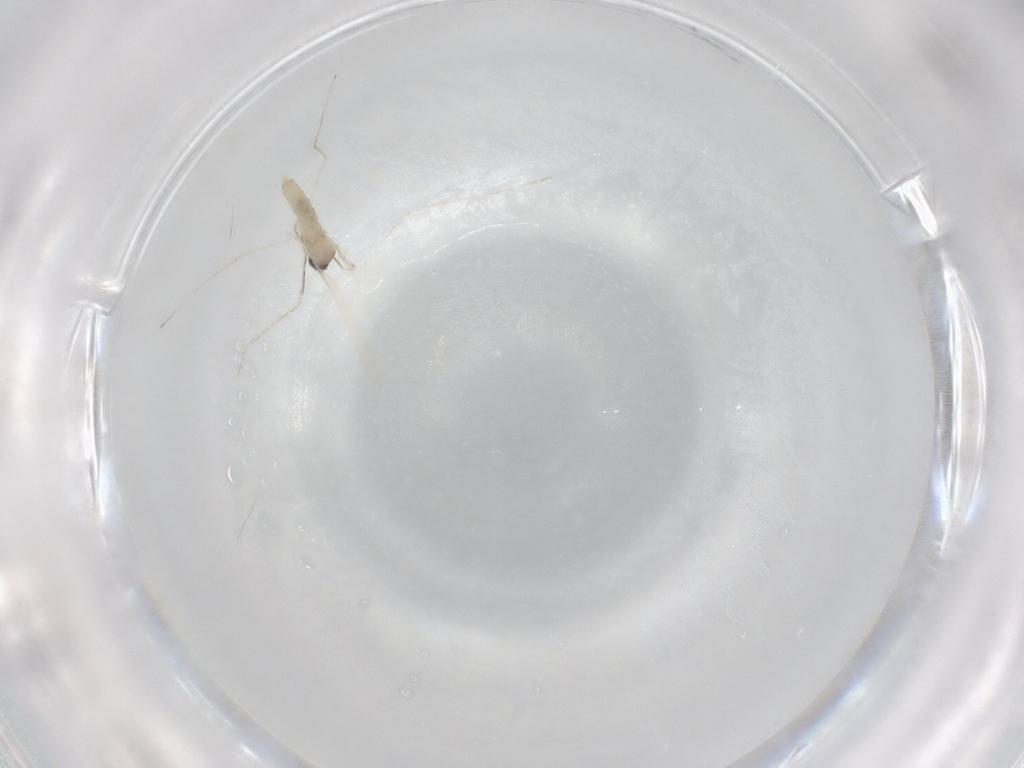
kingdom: Animalia
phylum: Arthropoda
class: Insecta
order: Diptera
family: Cecidomyiidae
